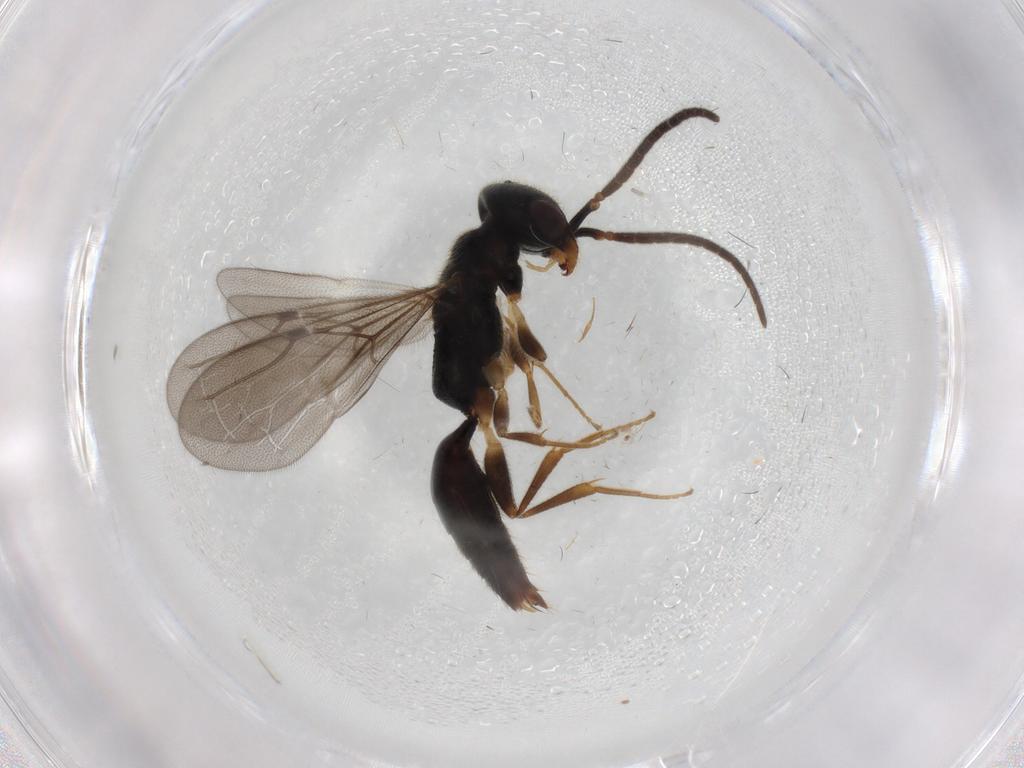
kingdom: Animalia
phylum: Arthropoda
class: Insecta
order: Hymenoptera
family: Bethylidae
